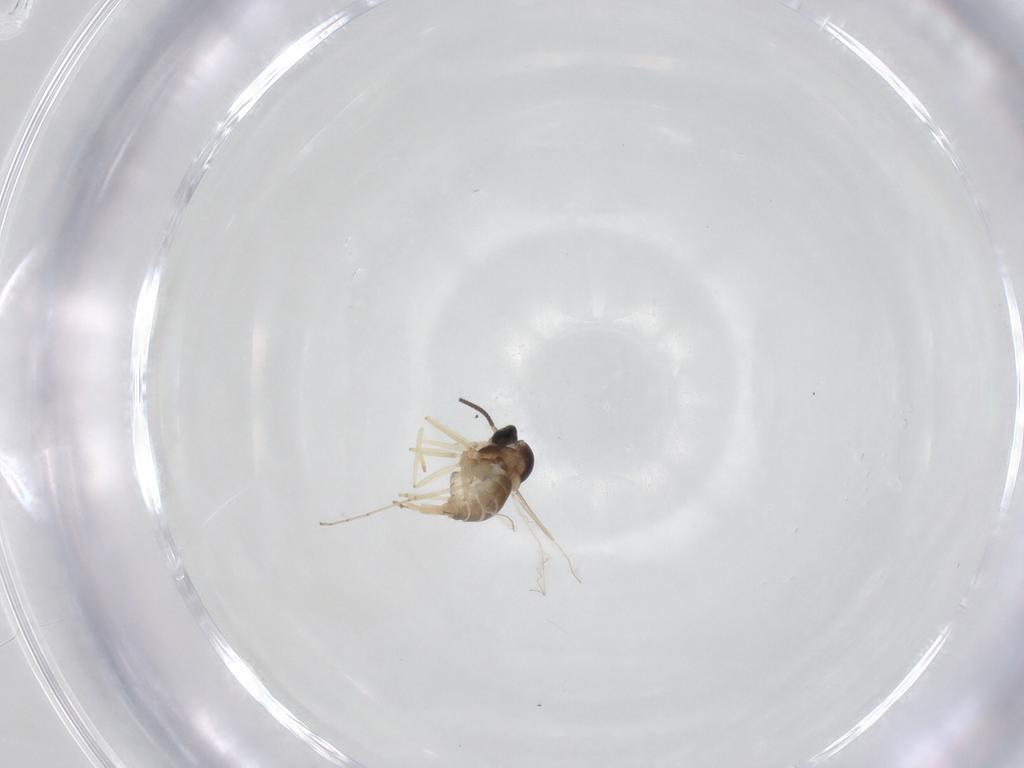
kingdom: Animalia
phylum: Arthropoda
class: Insecta
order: Diptera
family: Cecidomyiidae
